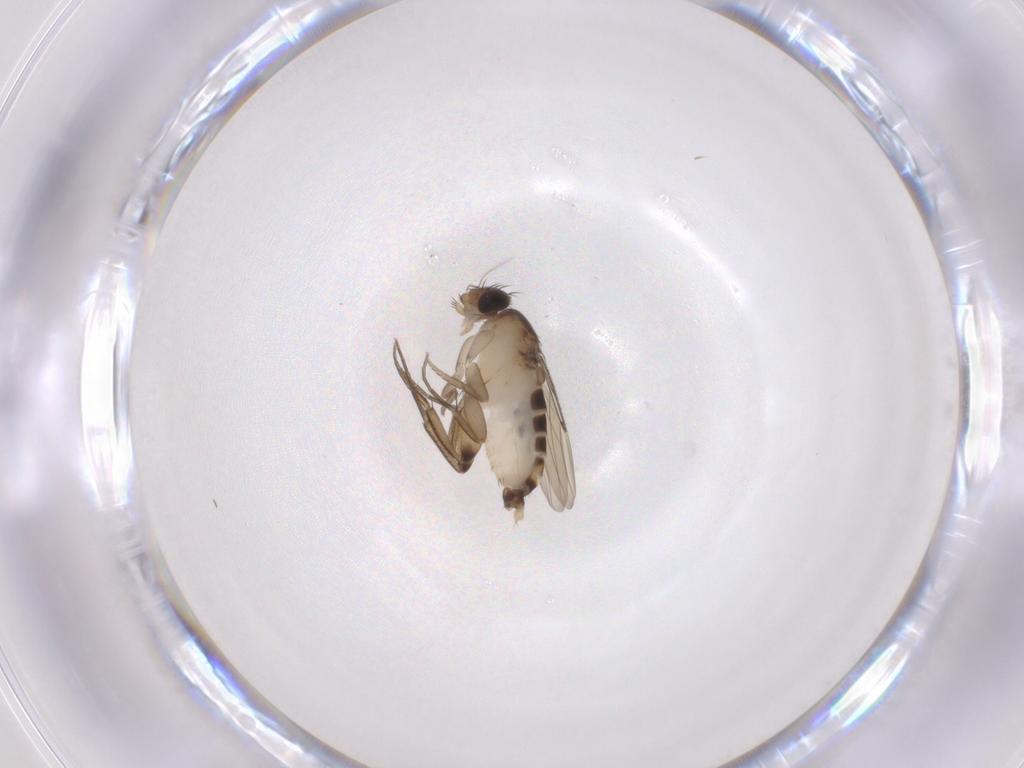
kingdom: Animalia
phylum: Arthropoda
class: Insecta
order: Diptera
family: Phoridae
